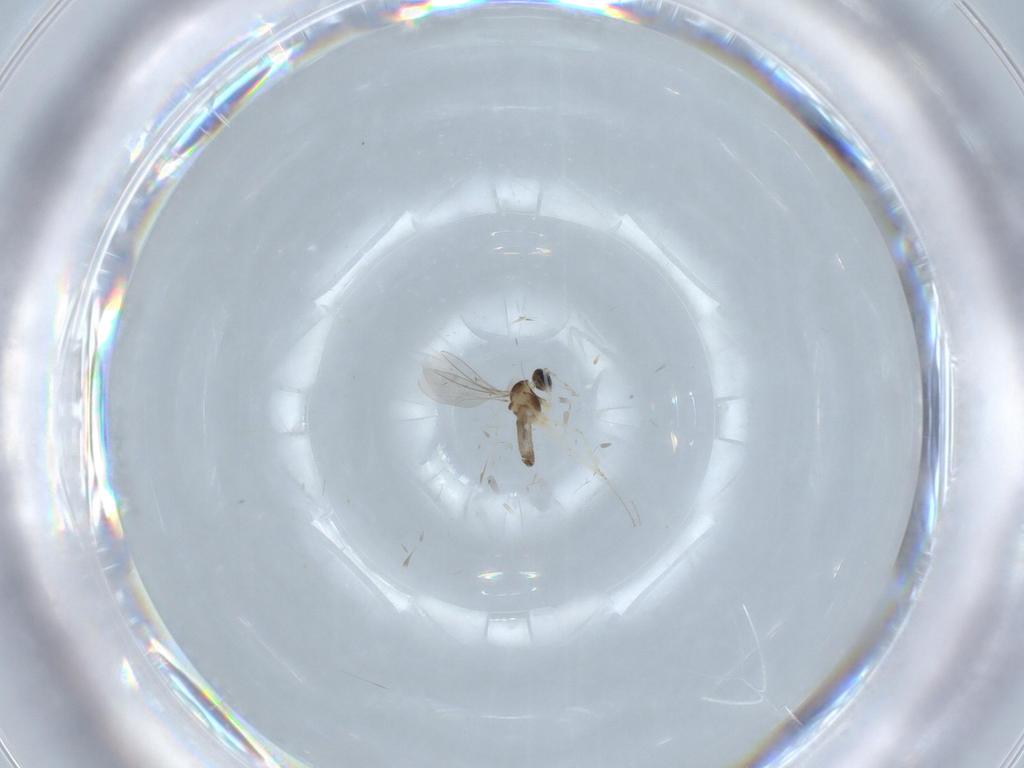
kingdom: Animalia
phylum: Arthropoda
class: Insecta
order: Diptera
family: Cecidomyiidae
